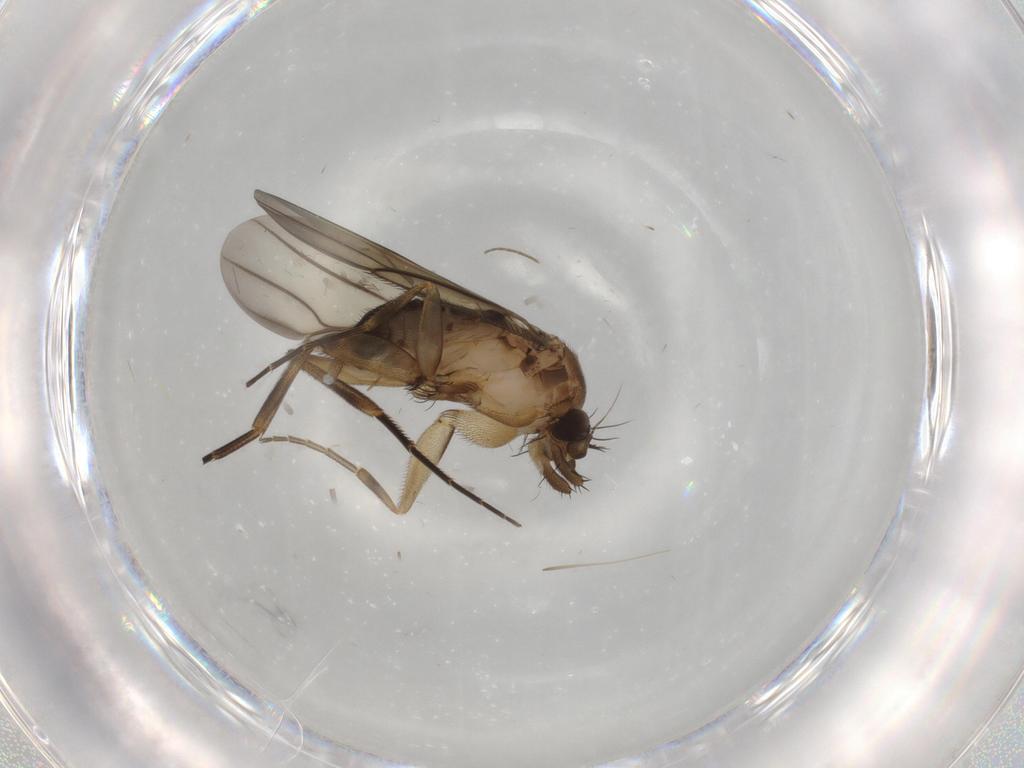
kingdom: Animalia
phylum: Arthropoda
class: Insecta
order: Diptera
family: Phoridae
